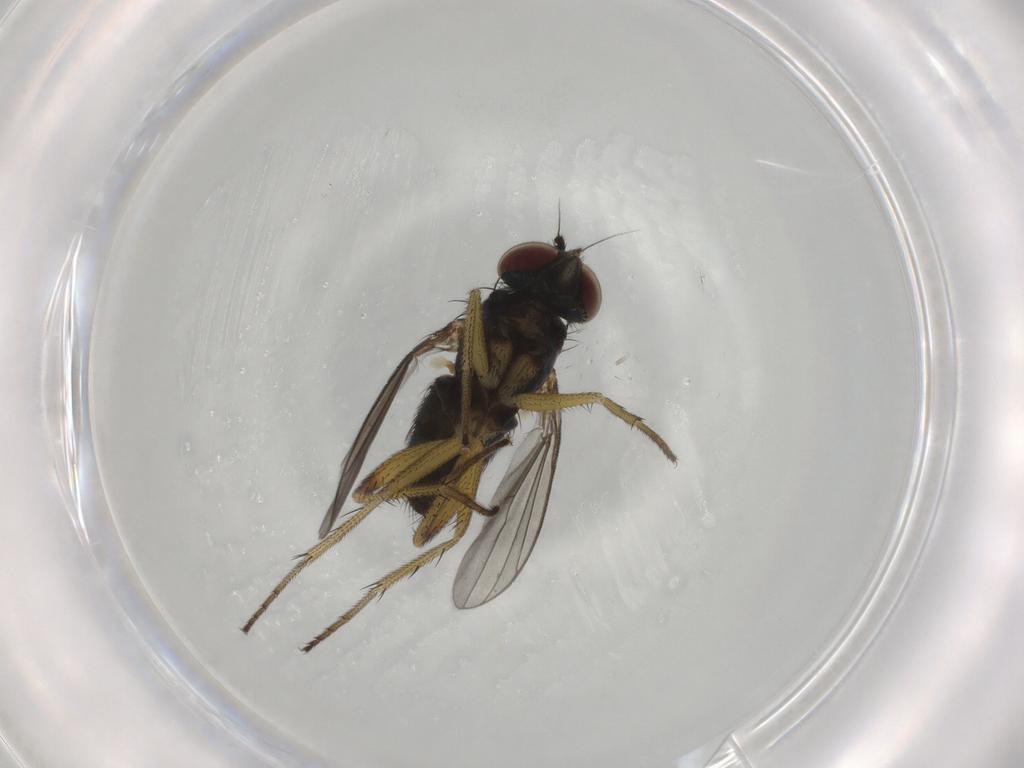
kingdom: Animalia
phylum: Arthropoda
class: Insecta
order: Diptera
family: Dolichopodidae
